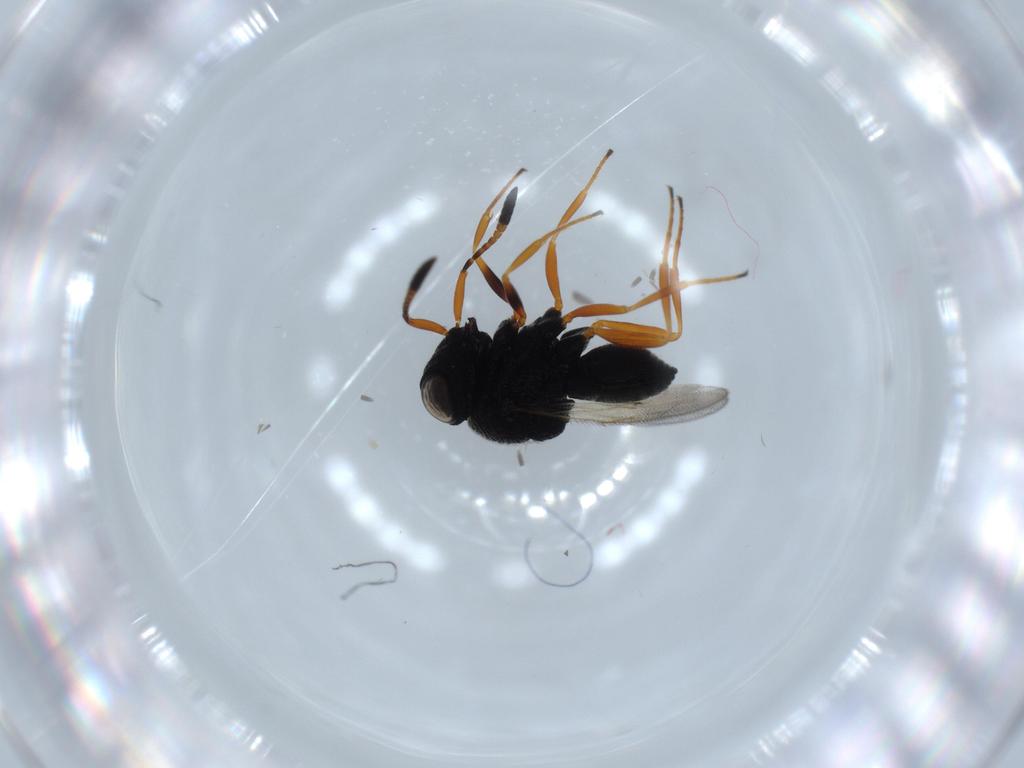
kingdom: Animalia
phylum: Arthropoda
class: Insecta
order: Hymenoptera
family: Scelionidae
